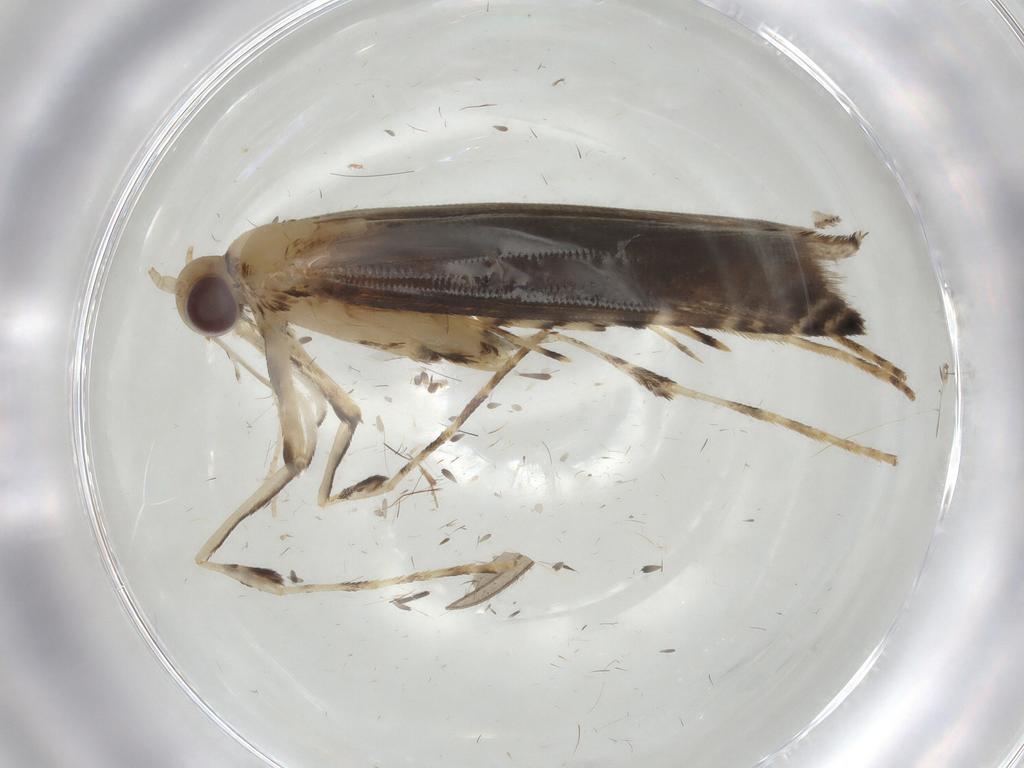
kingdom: Animalia
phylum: Arthropoda
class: Insecta
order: Lepidoptera
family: Gracillariidae
